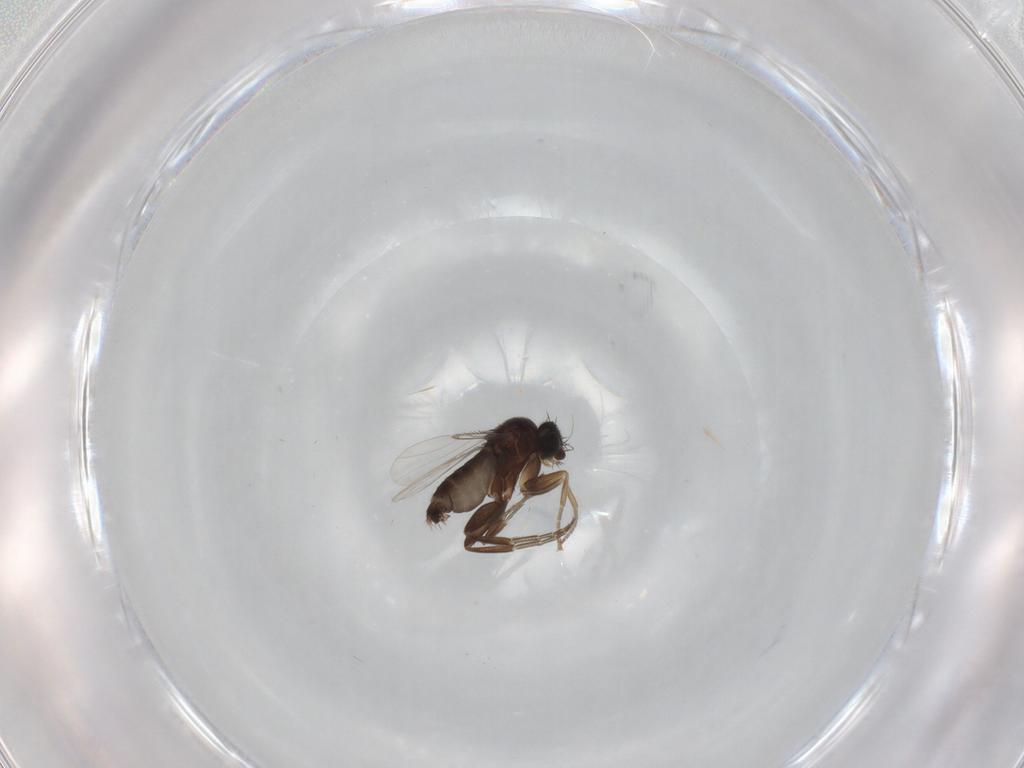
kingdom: Animalia
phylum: Arthropoda
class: Insecta
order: Diptera
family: Phoridae
